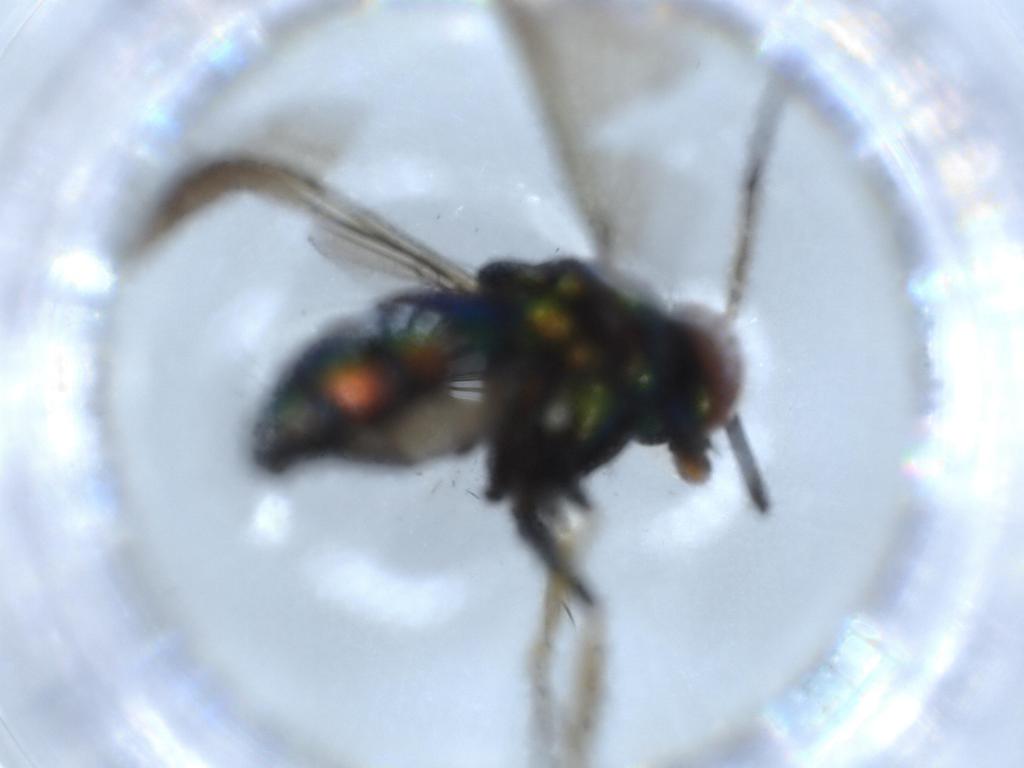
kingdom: Animalia
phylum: Arthropoda
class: Insecta
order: Diptera
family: Dolichopodidae
